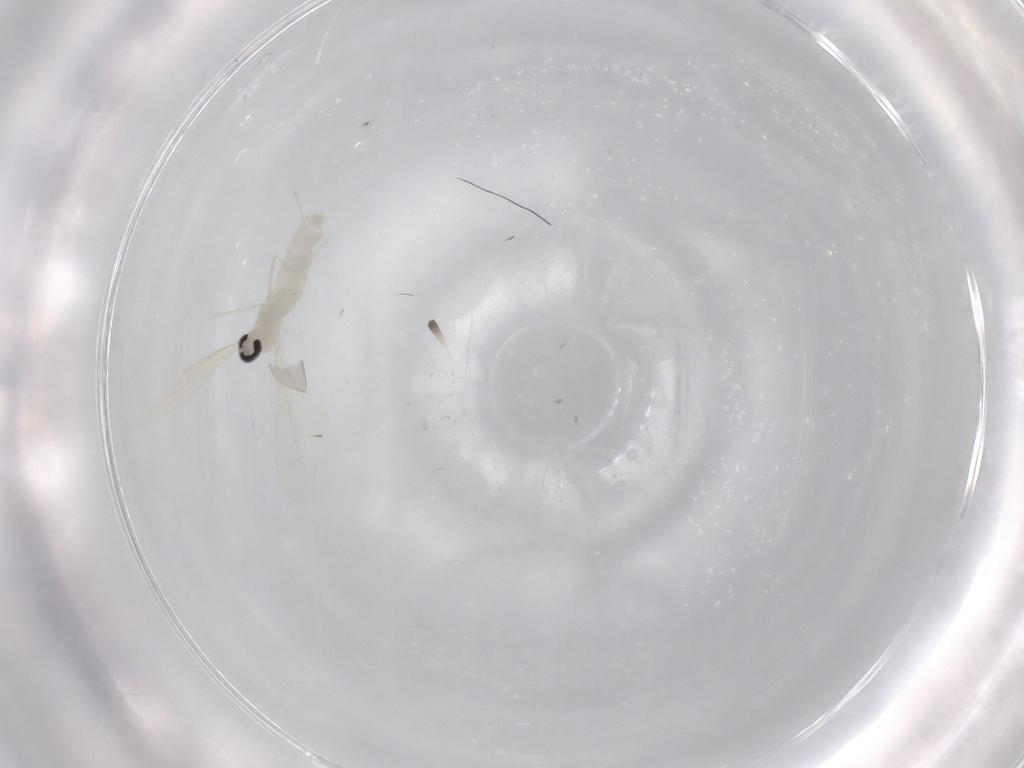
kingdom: Animalia
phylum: Arthropoda
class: Insecta
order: Diptera
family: Cecidomyiidae
